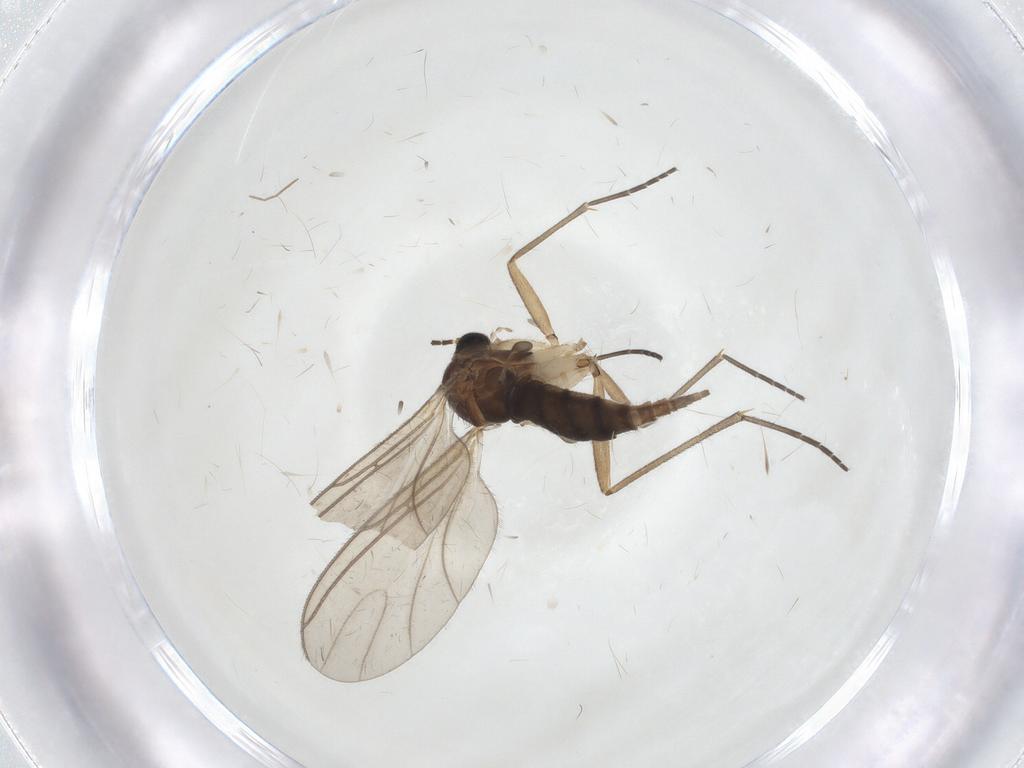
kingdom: Animalia
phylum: Arthropoda
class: Insecta
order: Diptera
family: Sciaridae
